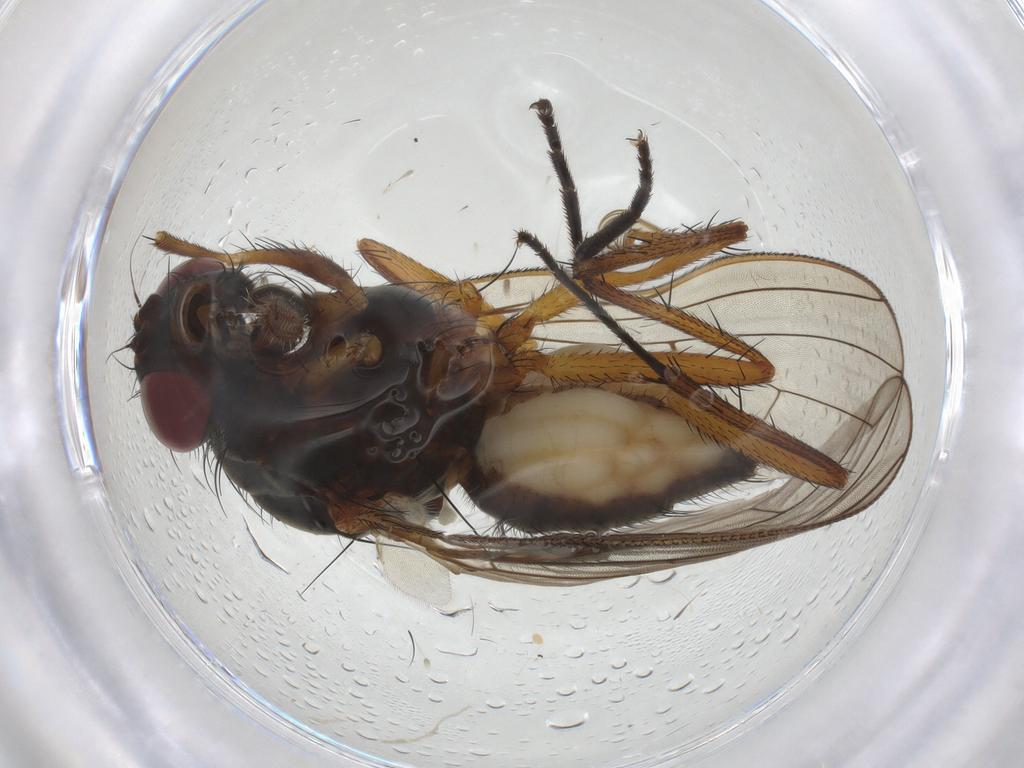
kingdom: Animalia
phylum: Arthropoda
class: Insecta
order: Diptera
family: Anthomyiidae
